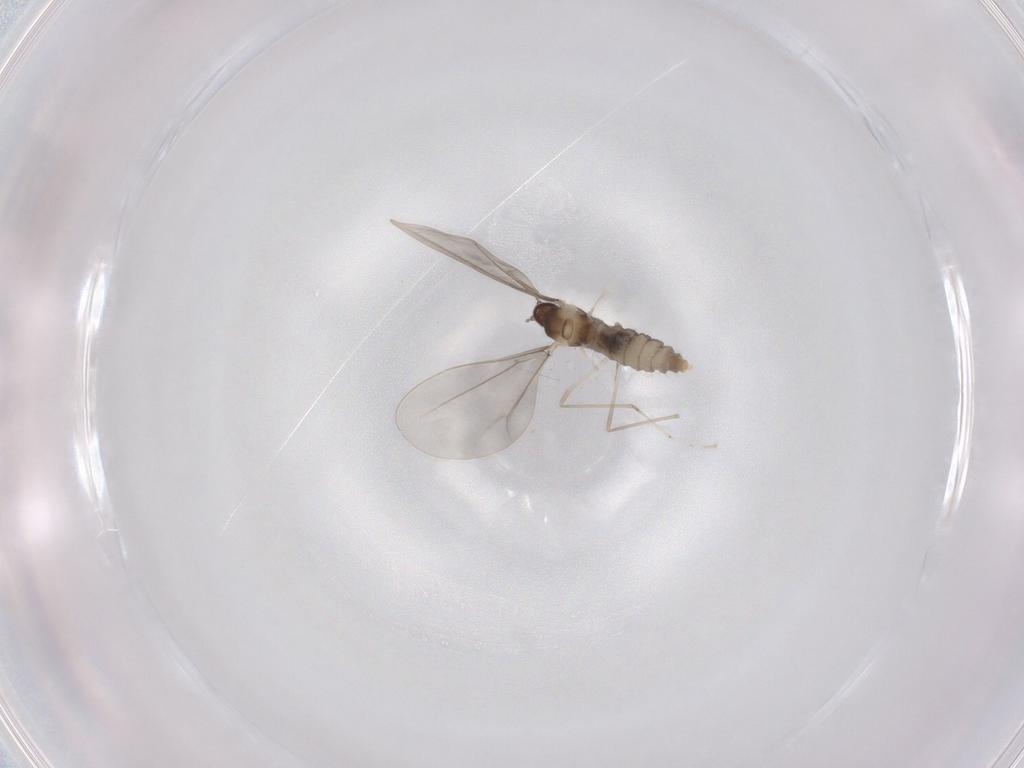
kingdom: Animalia
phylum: Arthropoda
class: Insecta
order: Diptera
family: Cecidomyiidae
